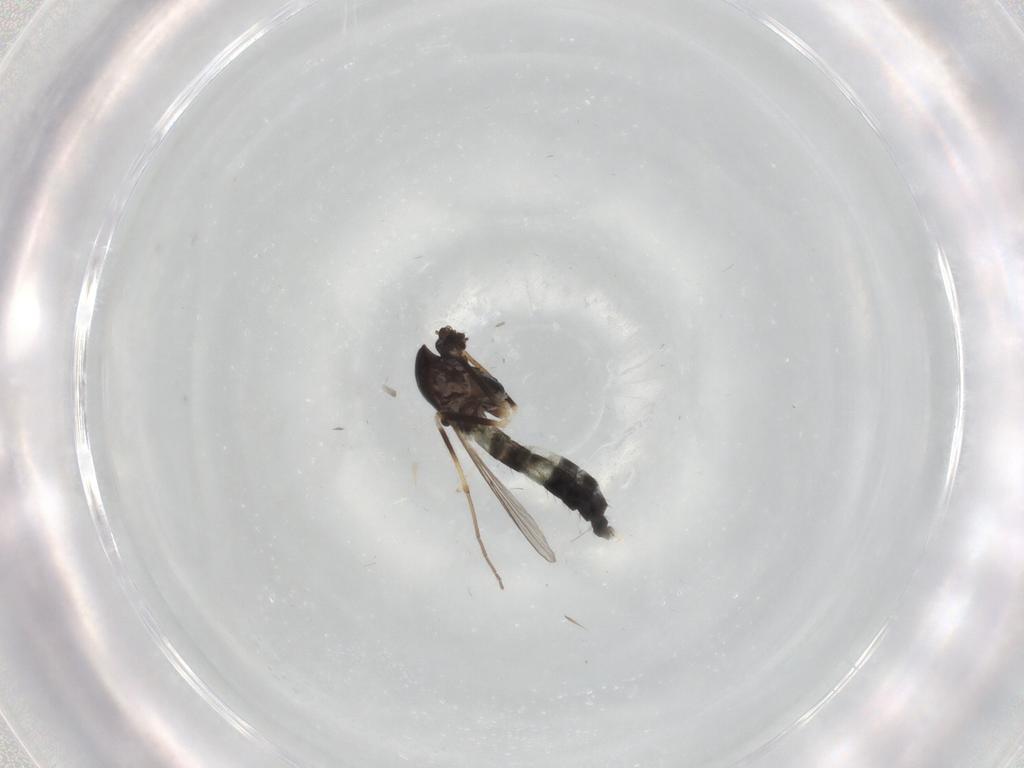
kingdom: Animalia
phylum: Arthropoda
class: Insecta
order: Diptera
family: Chironomidae
